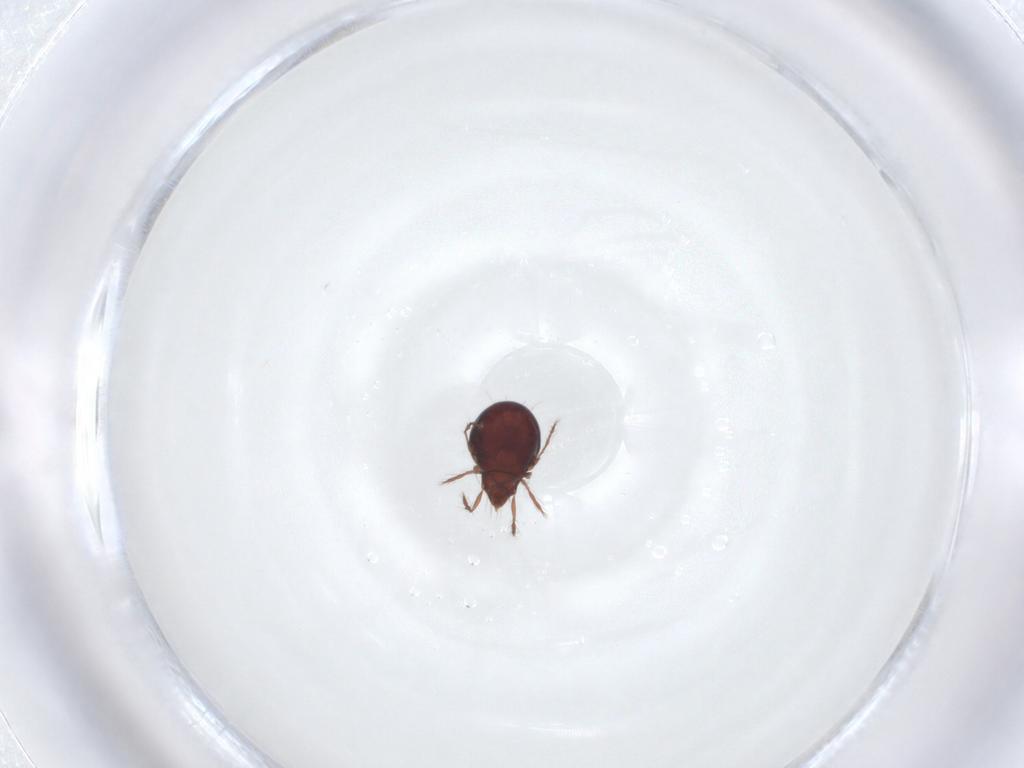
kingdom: Animalia
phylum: Arthropoda
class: Arachnida
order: Sarcoptiformes
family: Ceratoppiidae
